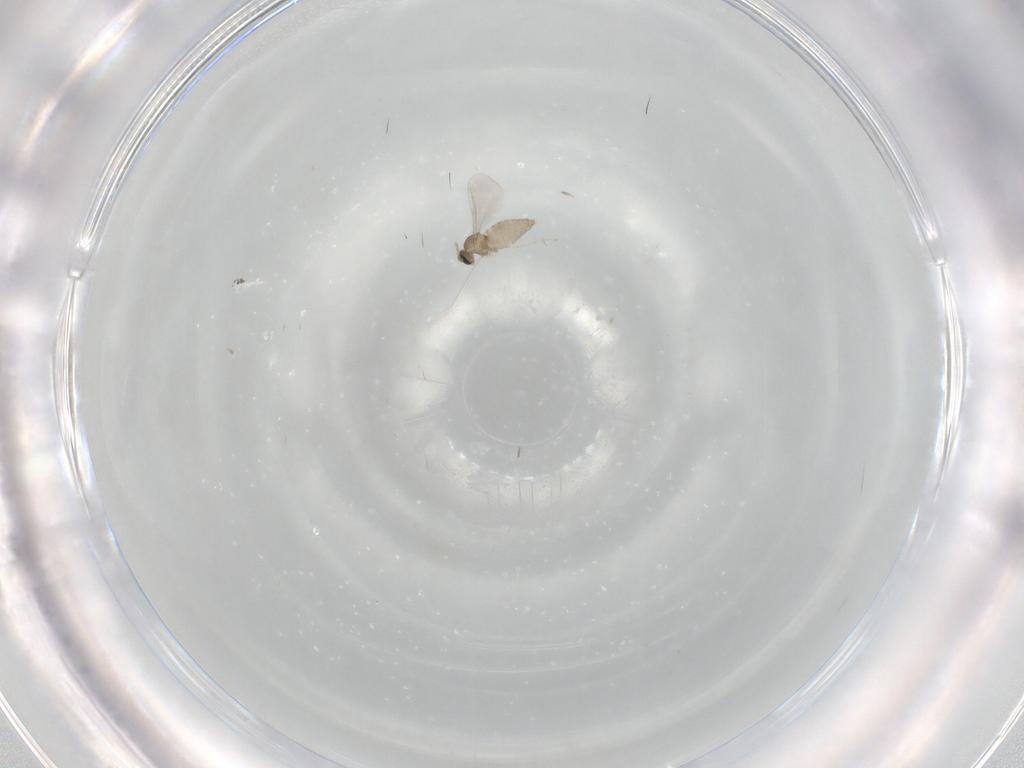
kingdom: Animalia
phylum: Arthropoda
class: Insecta
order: Diptera
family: Cecidomyiidae
